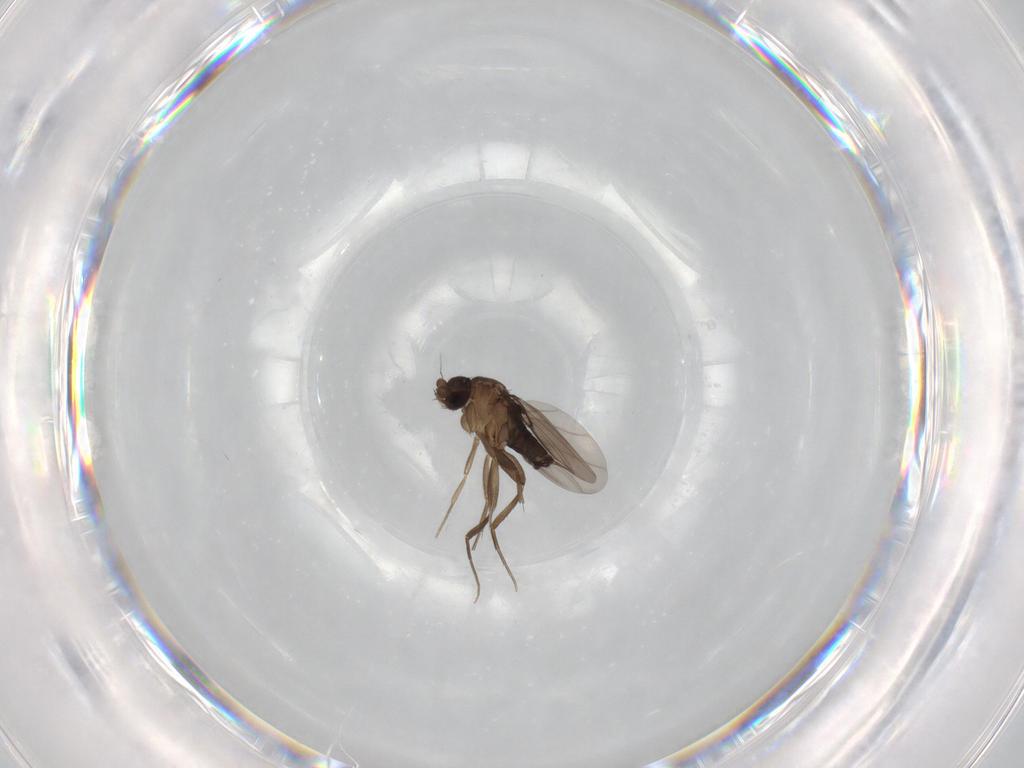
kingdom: Animalia
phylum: Arthropoda
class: Insecta
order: Diptera
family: Phoridae
